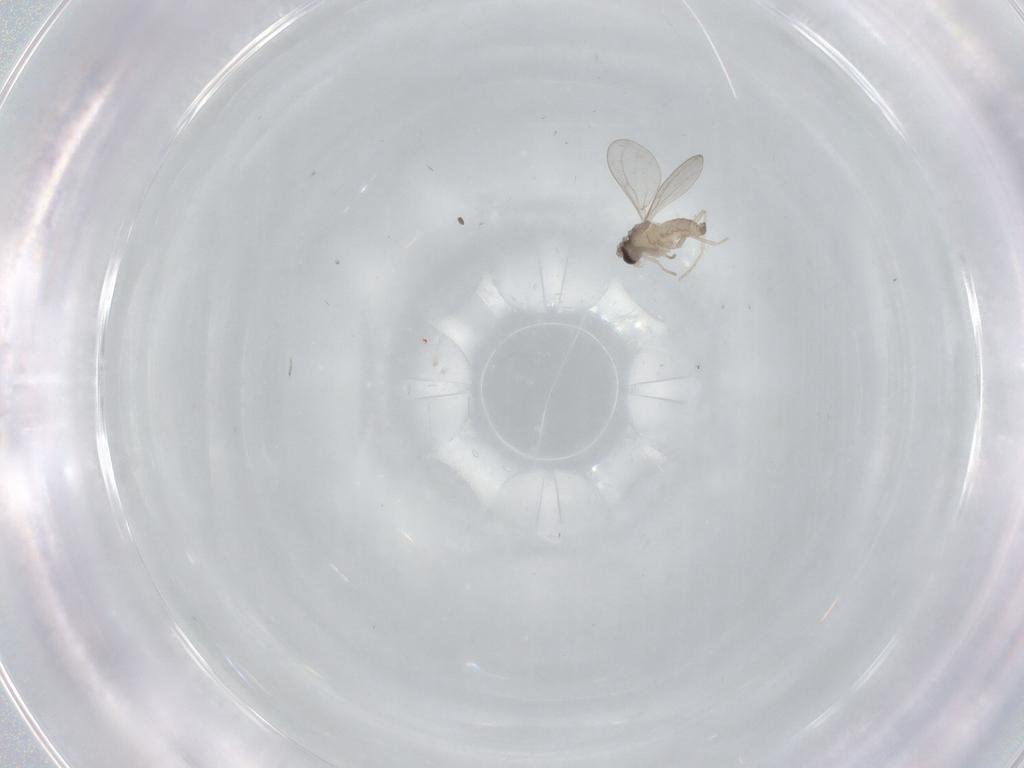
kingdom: Animalia
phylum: Arthropoda
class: Insecta
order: Diptera
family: Cecidomyiidae
